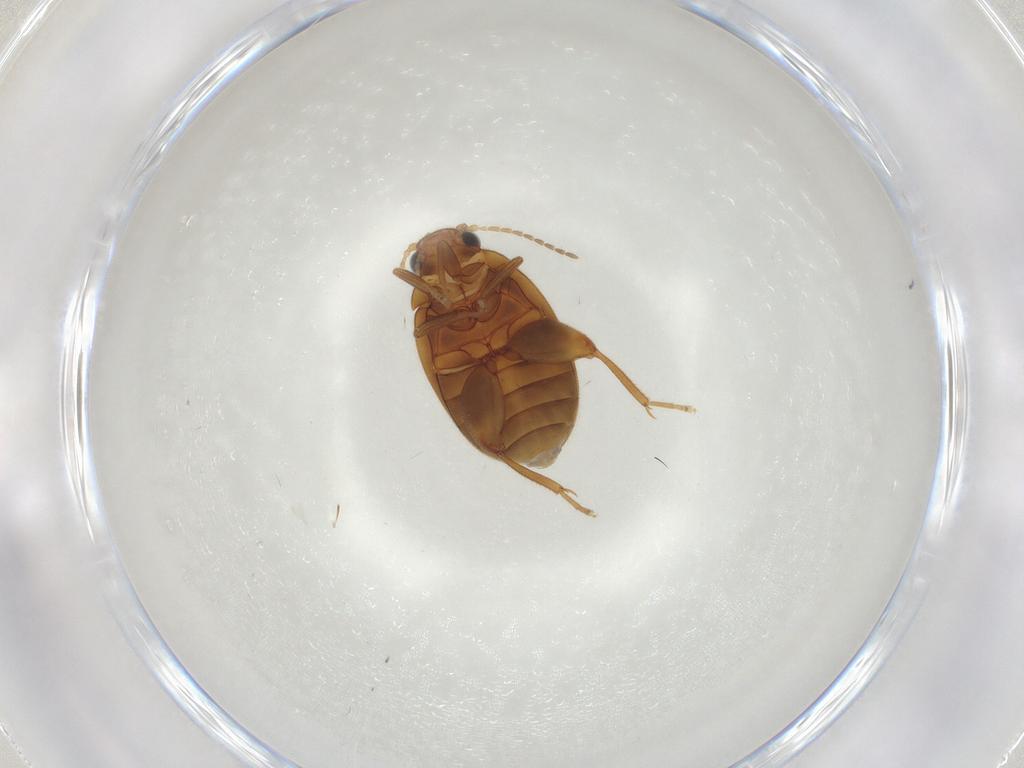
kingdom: Animalia
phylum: Arthropoda
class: Insecta
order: Coleoptera
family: Scirtidae
